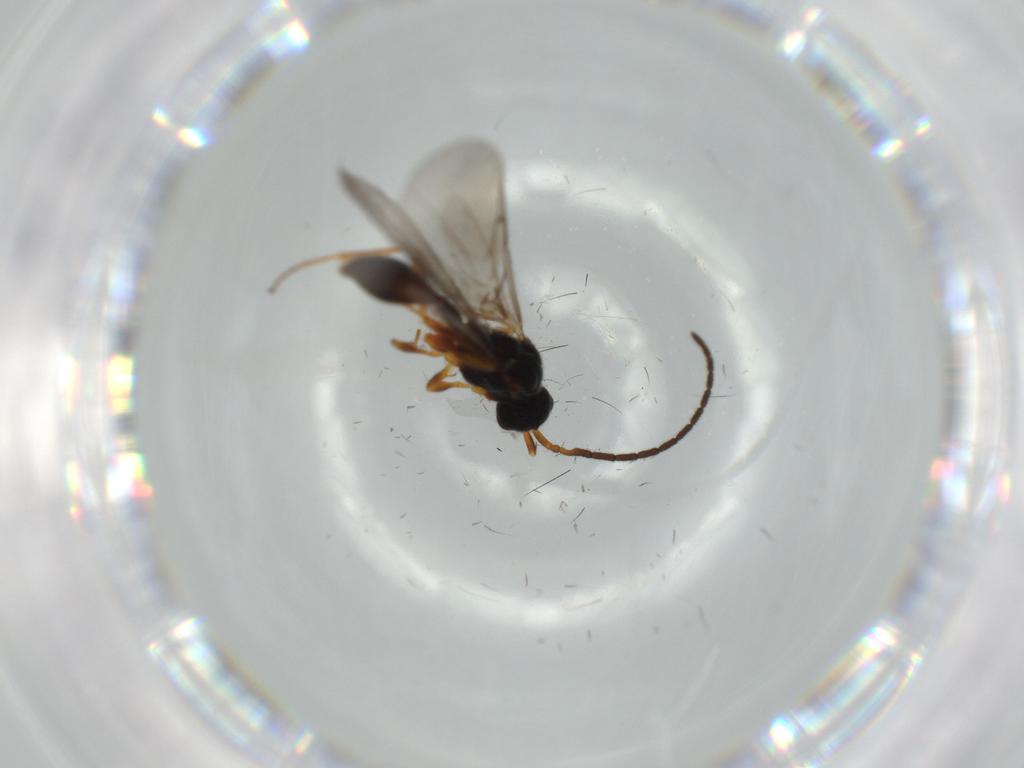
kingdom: Animalia
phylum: Arthropoda
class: Insecta
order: Hymenoptera
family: Braconidae
